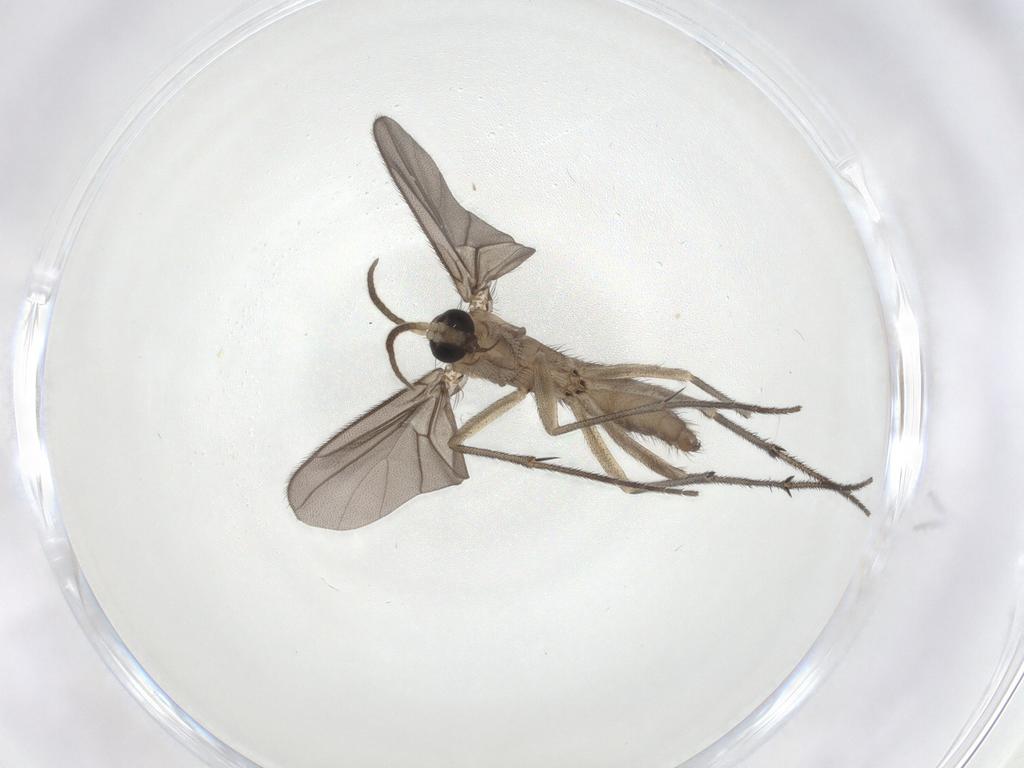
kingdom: Animalia
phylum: Arthropoda
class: Insecta
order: Diptera
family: Diadocidiidae
